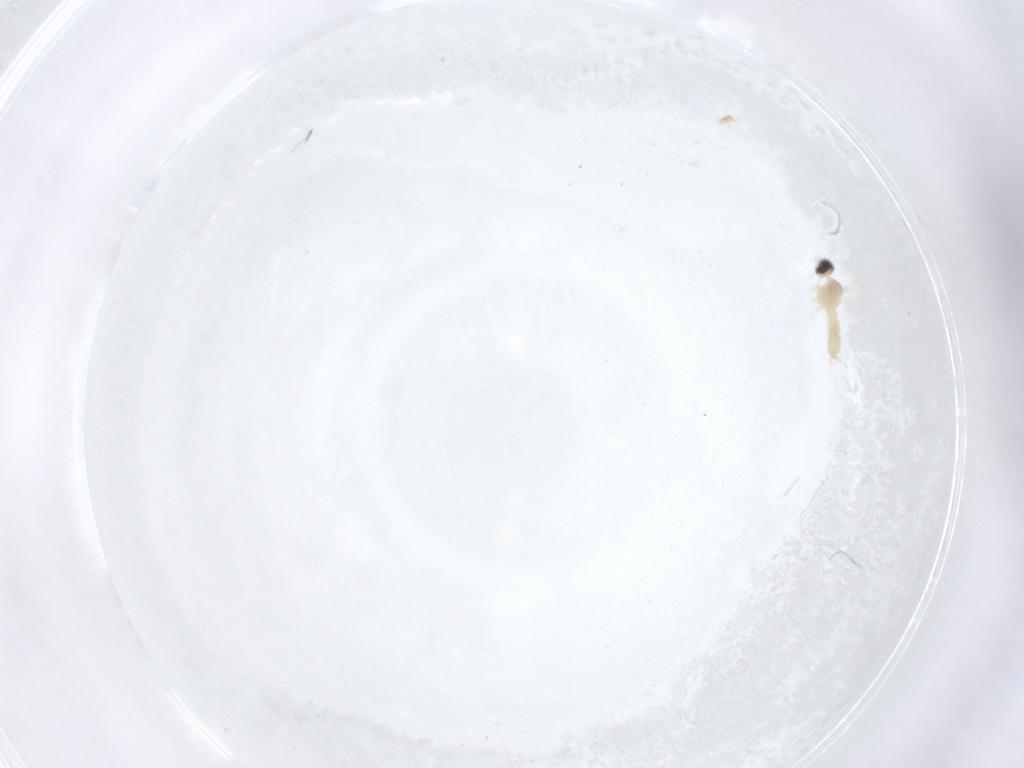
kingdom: Animalia
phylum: Arthropoda
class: Insecta
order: Diptera
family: Cecidomyiidae
